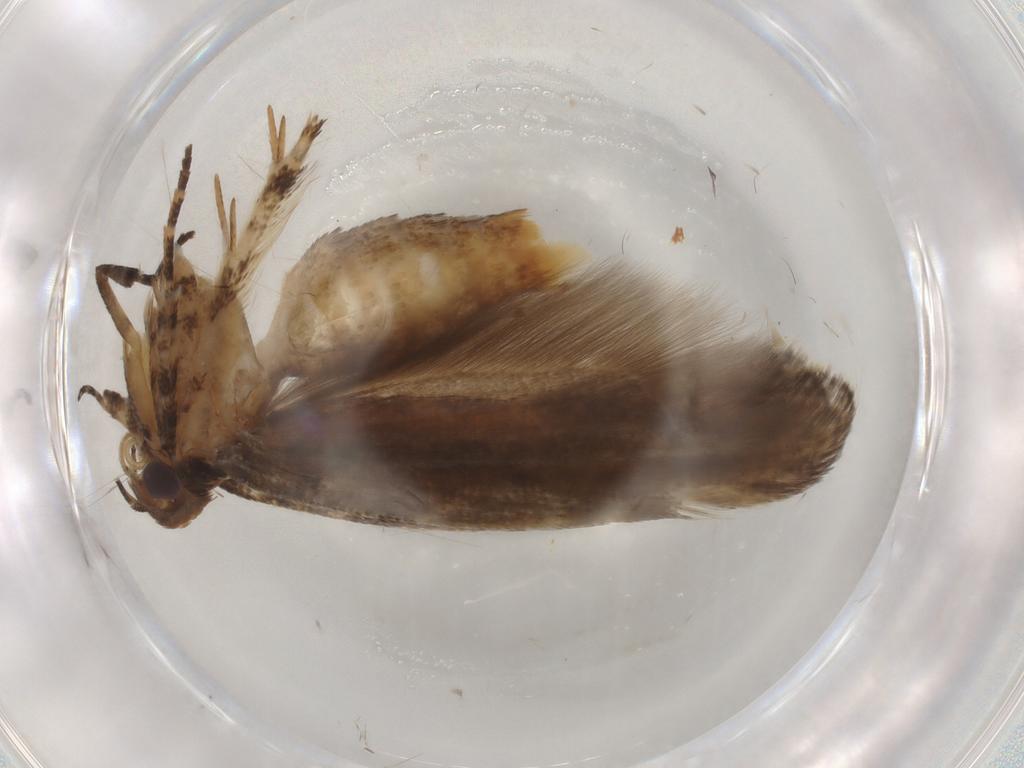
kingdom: Animalia
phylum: Arthropoda
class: Insecta
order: Lepidoptera
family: Gelechiidae
